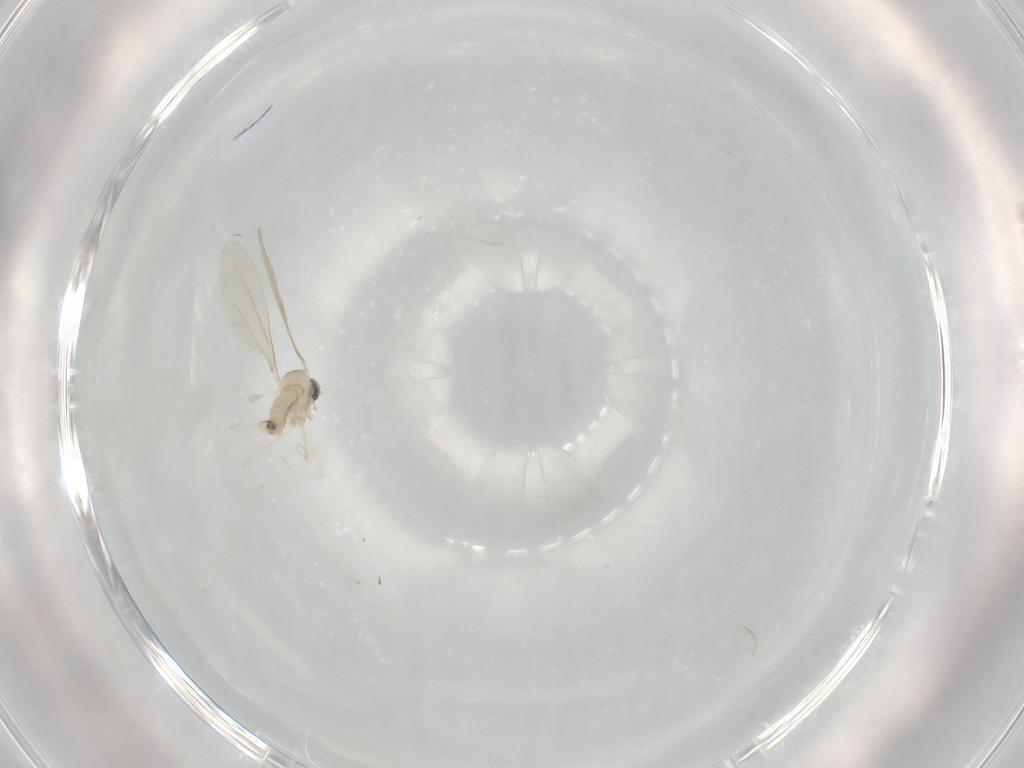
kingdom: Animalia
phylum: Arthropoda
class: Insecta
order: Diptera
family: Cecidomyiidae
